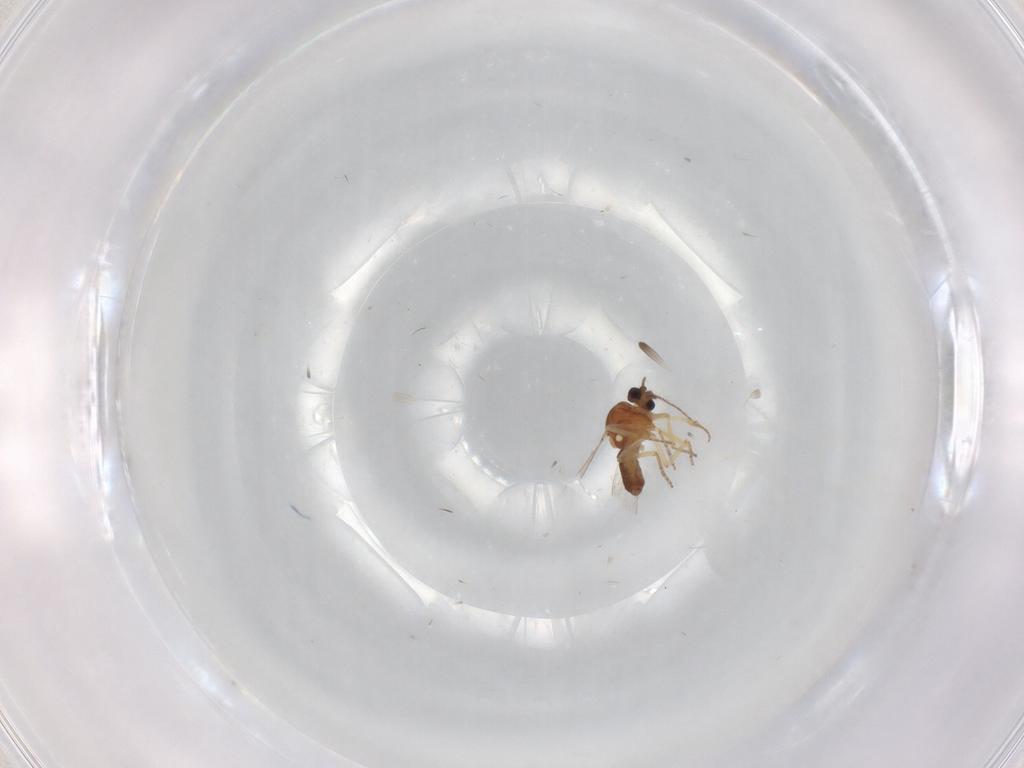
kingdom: Animalia
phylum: Arthropoda
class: Insecta
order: Diptera
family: Ceratopogonidae
